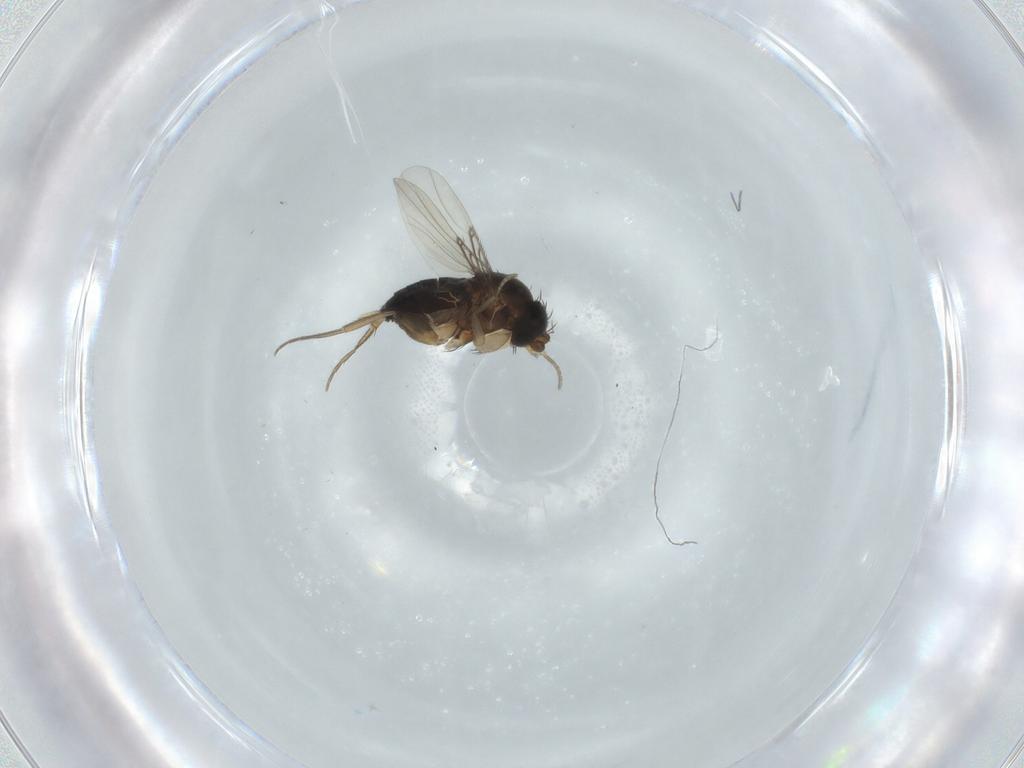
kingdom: Animalia
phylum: Arthropoda
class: Insecta
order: Diptera
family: Phoridae
